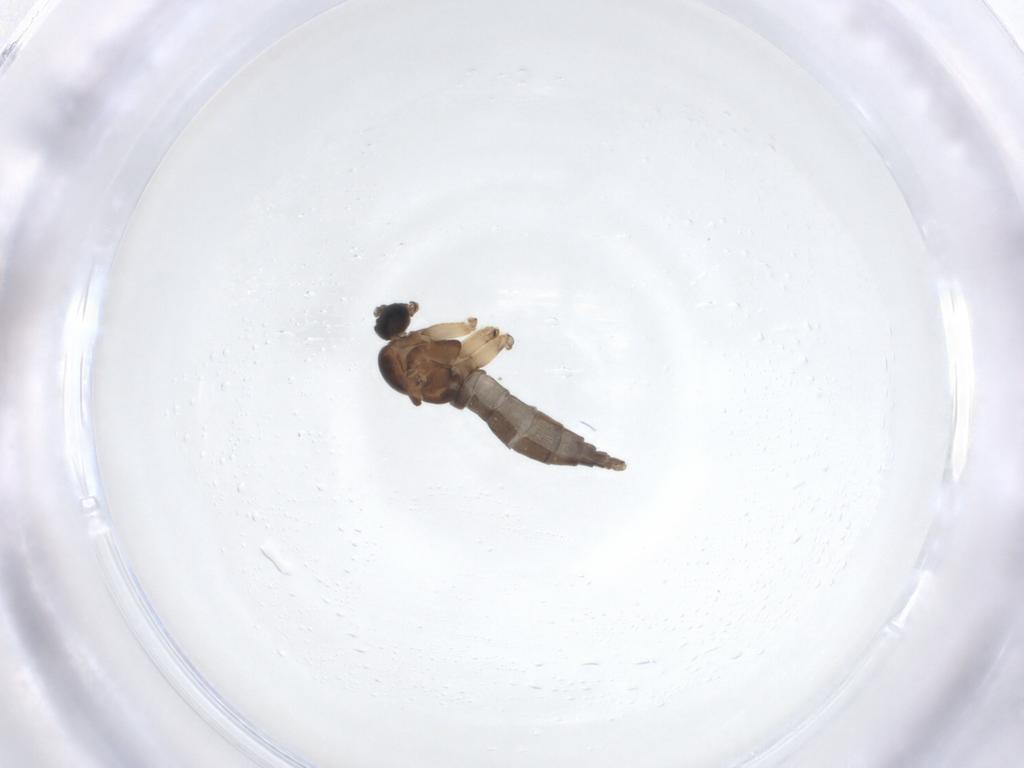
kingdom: Animalia
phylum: Arthropoda
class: Insecta
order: Diptera
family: Sciaridae
